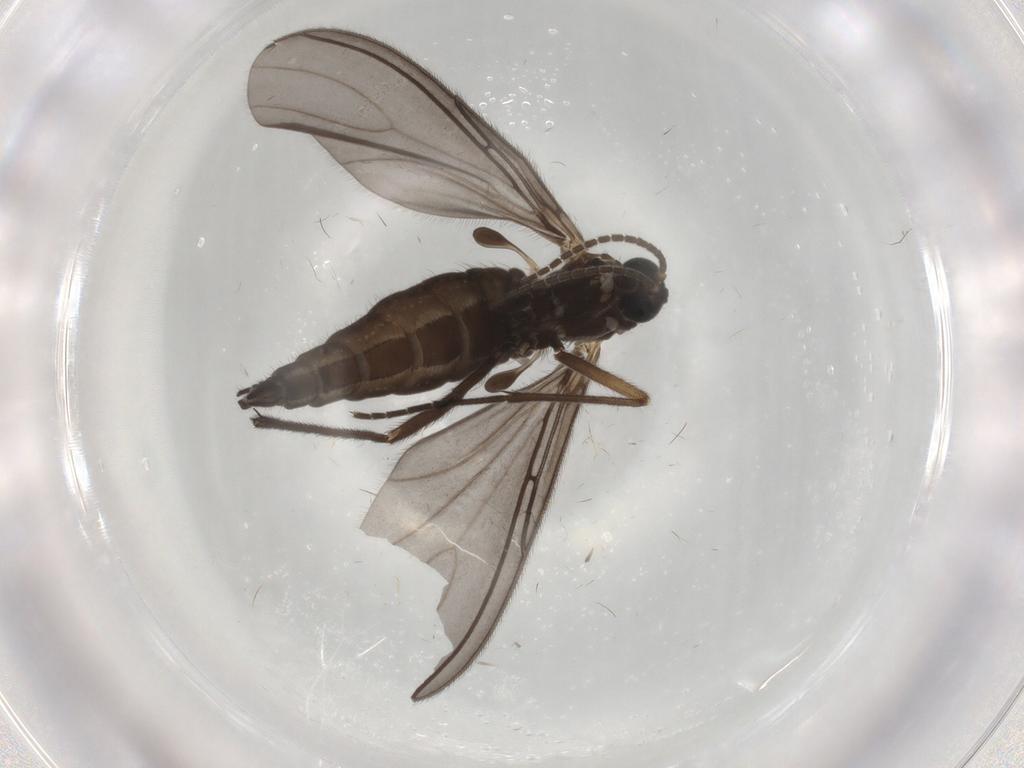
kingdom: Animalia
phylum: Arthropoda
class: Insecta
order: Diptera
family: Sciaridae
